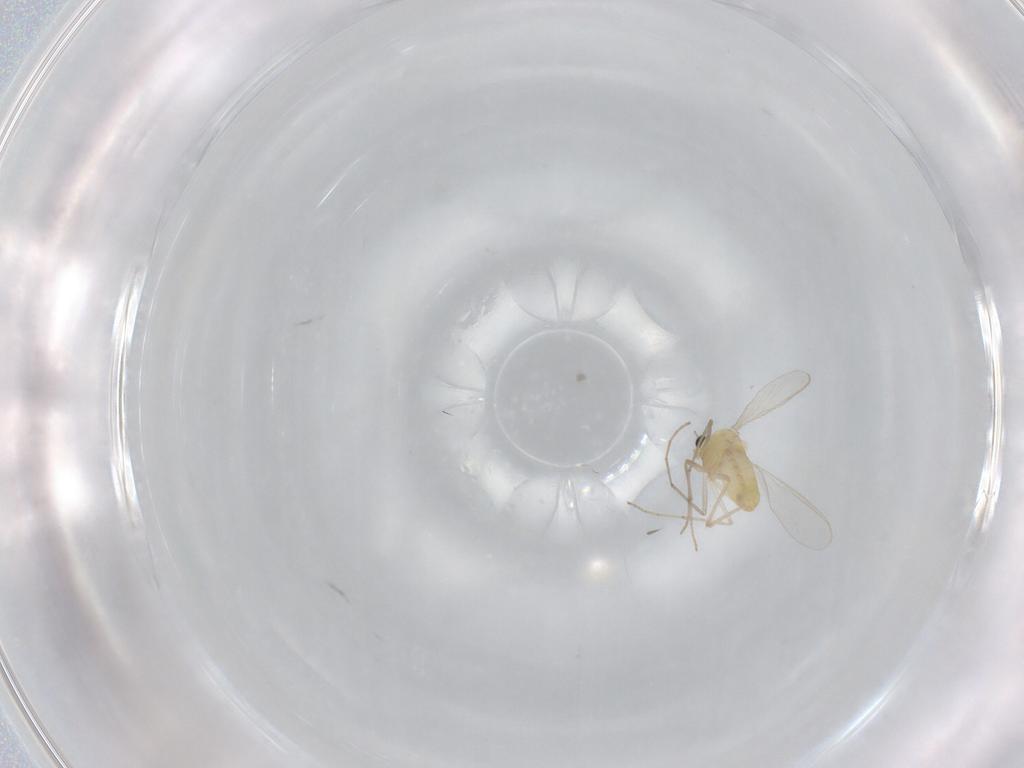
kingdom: Animalia
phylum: Arthropoda
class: Insecta
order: Diptera
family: Chironomidae
